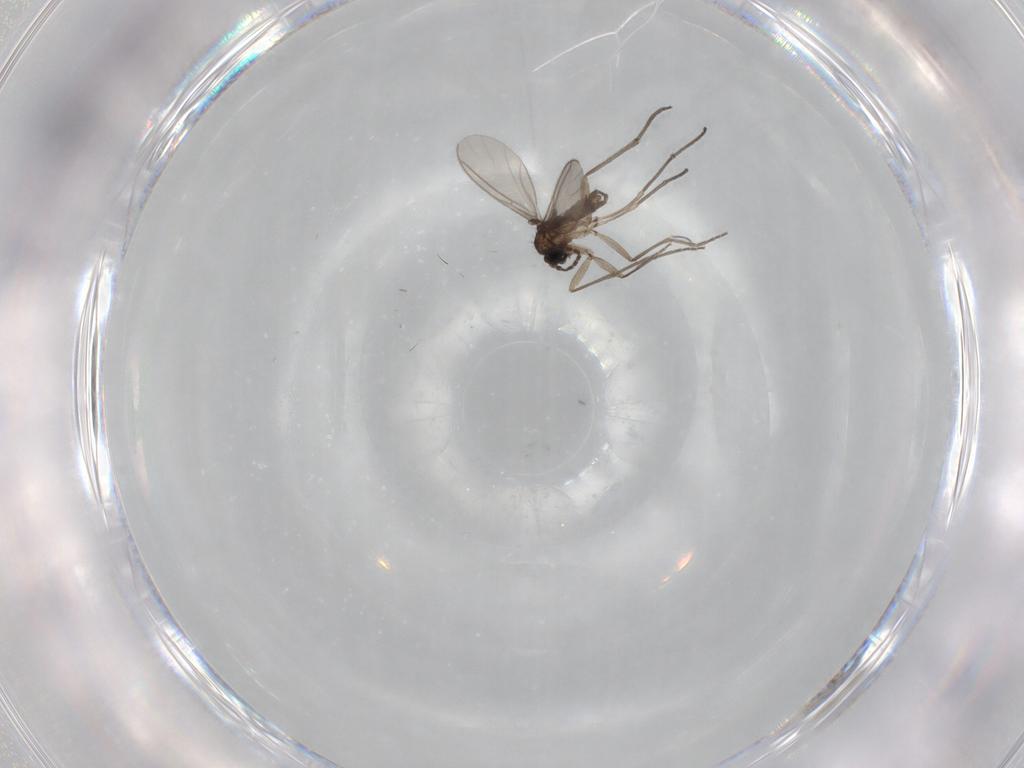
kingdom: Animalia
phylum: Arthropoda
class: Insecta
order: Diptera
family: Sciaridae
